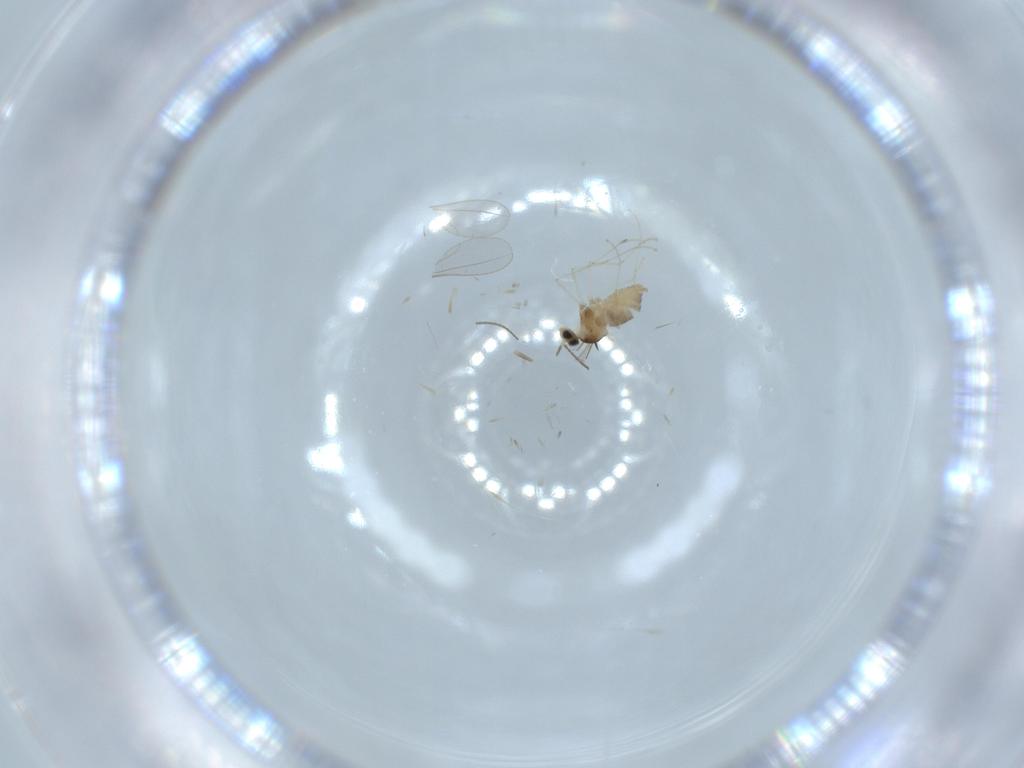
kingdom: Animalia
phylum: Arthropoda
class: Insecta
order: Diptera
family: Cecidomyiidae
